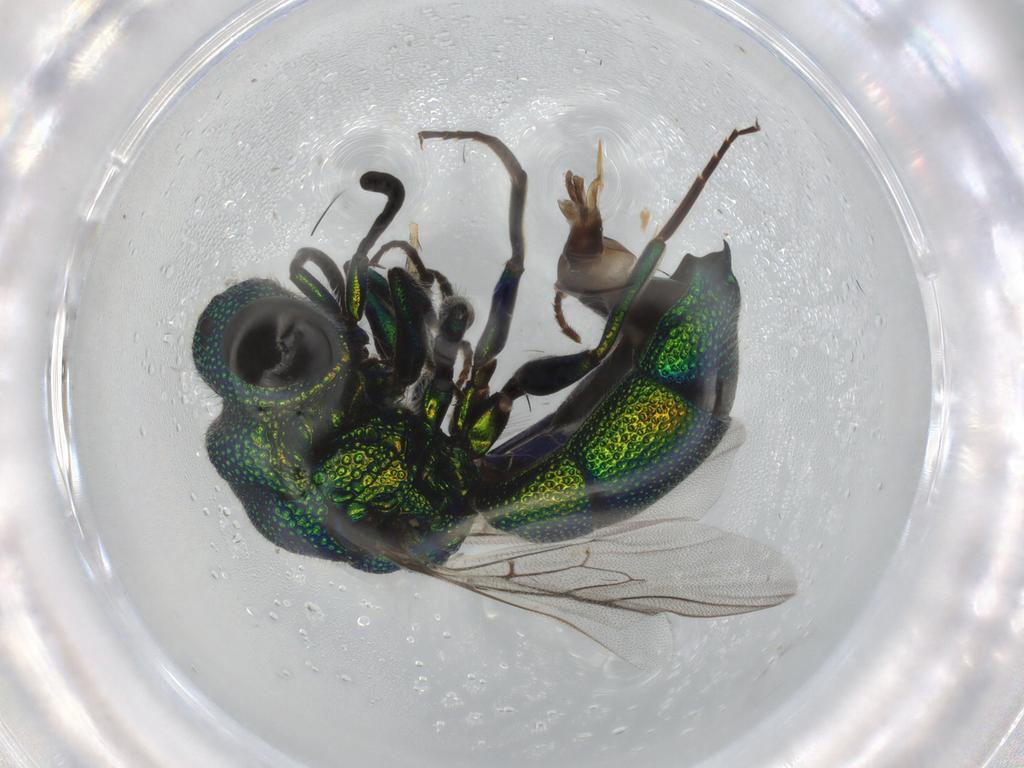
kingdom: Animalia
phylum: Arthropoda
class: Insecta
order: Hymenoptera
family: Chrysididae
